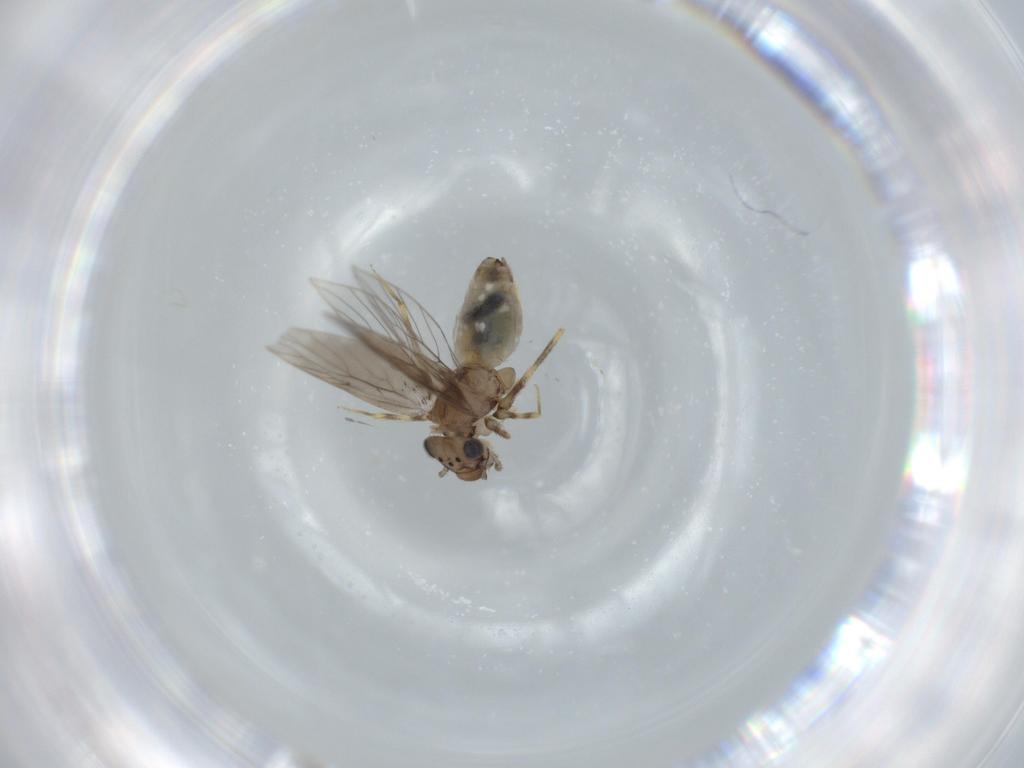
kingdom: Animalia
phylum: Arthropoda
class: Insecta
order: Psocodea
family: Lepidopsocidae
